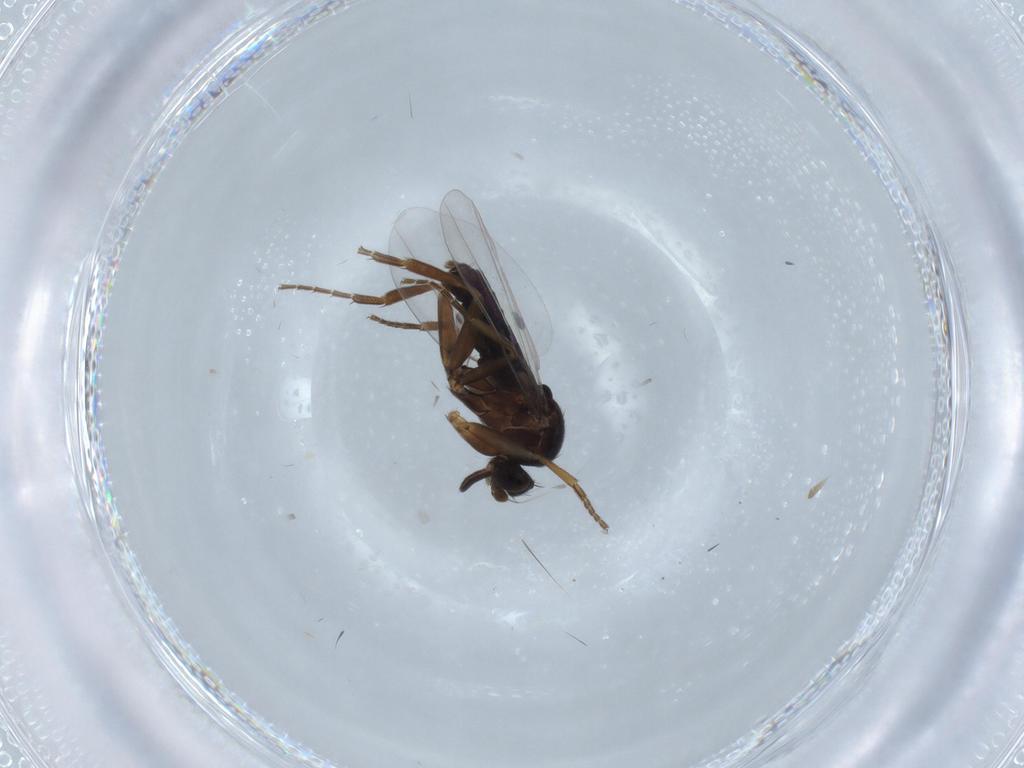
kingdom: Animalia
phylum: Arthropoda
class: Insecta
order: Diptera
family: Phoridae
